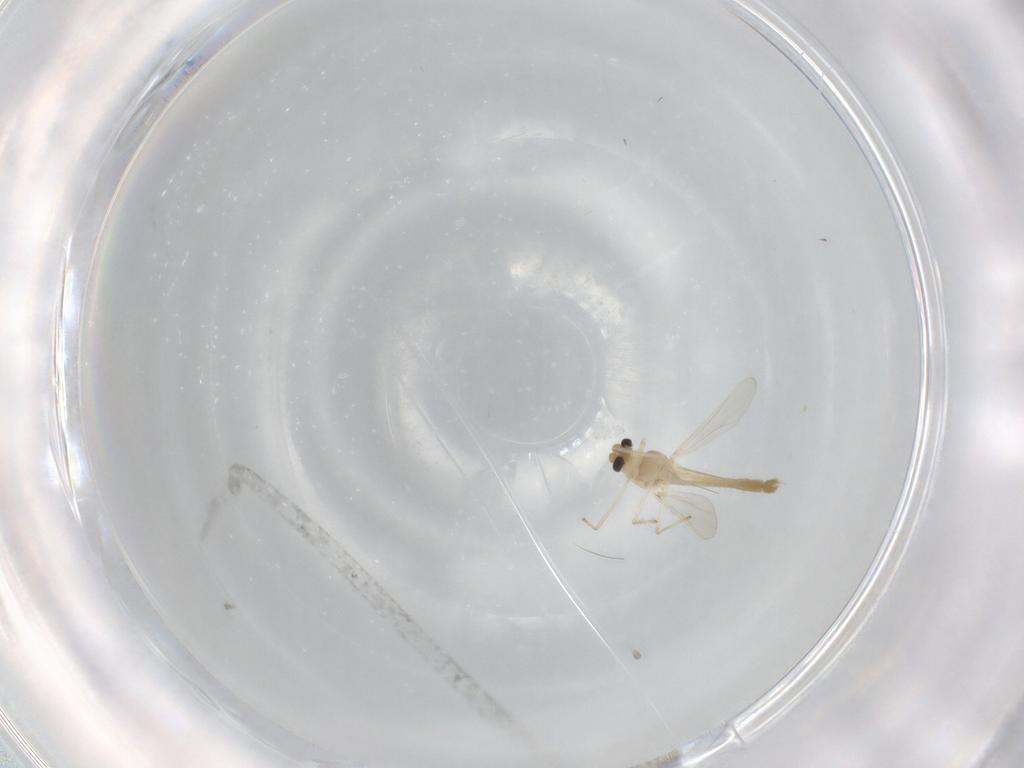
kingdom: Animalia
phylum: Arthropoda
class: Insecta
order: Diptera
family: Chironomidae
